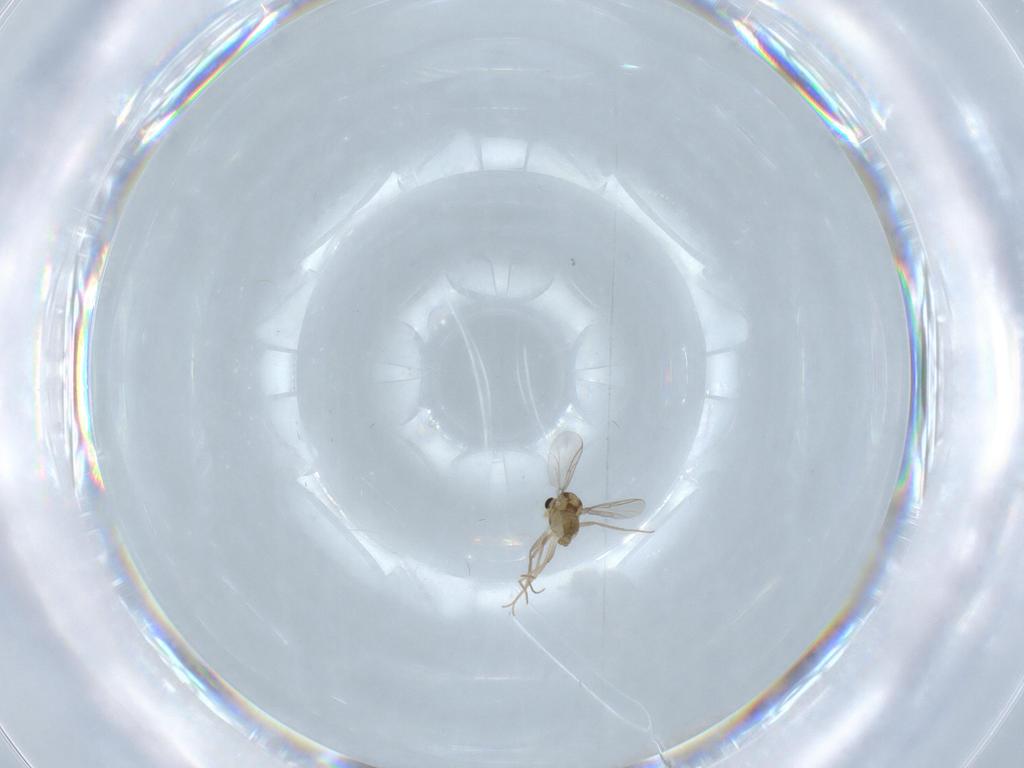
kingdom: Animalia
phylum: Arthropoda
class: Insecta
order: Diptera
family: Chironomidae
